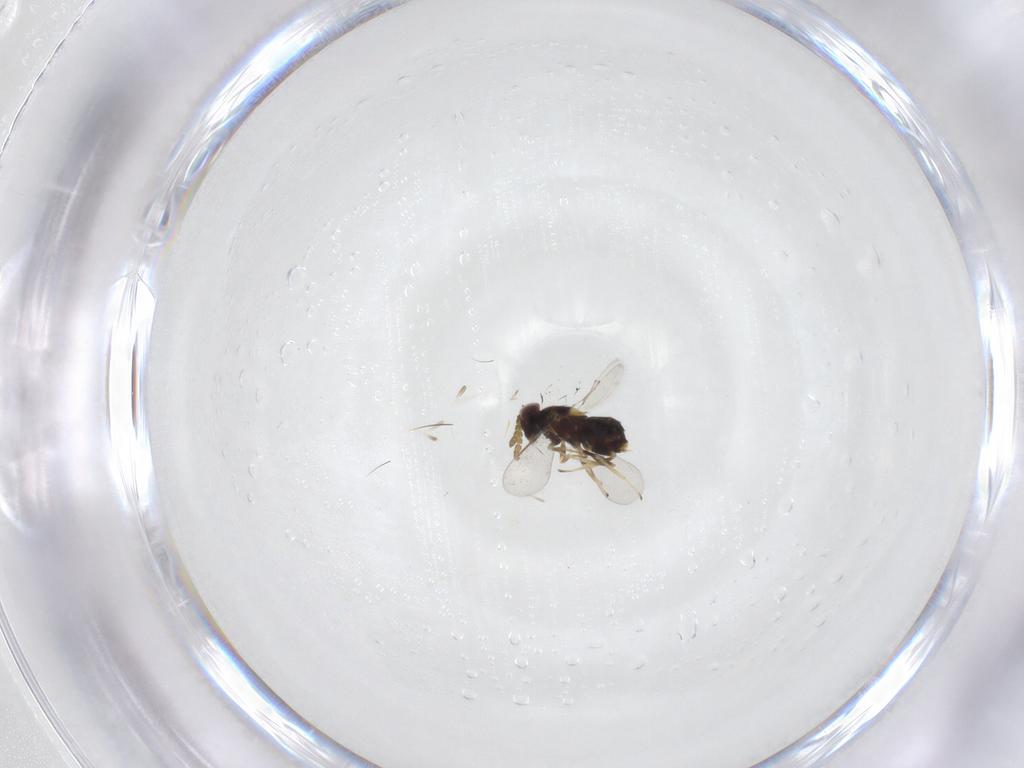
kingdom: Animalia
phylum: Arthropoda
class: Insecta
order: Hymenoptera
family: Aphelinidae
